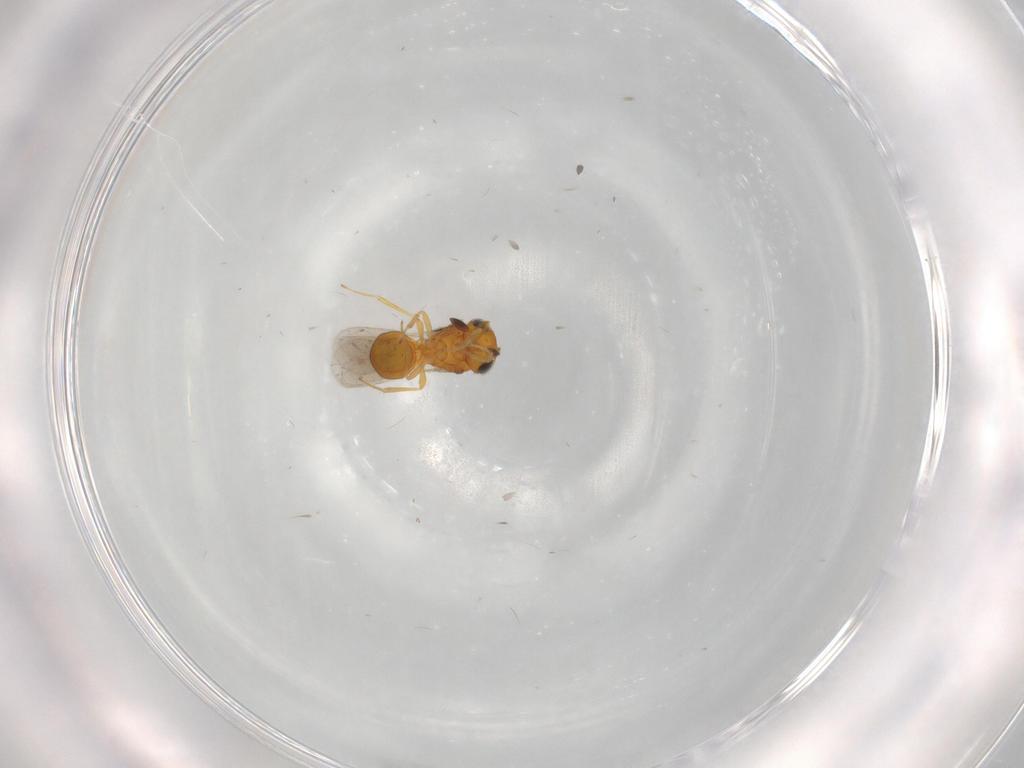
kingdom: Animalia
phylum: Arthropoda
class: Insecta
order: Hymenoptera
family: Scelionidae
